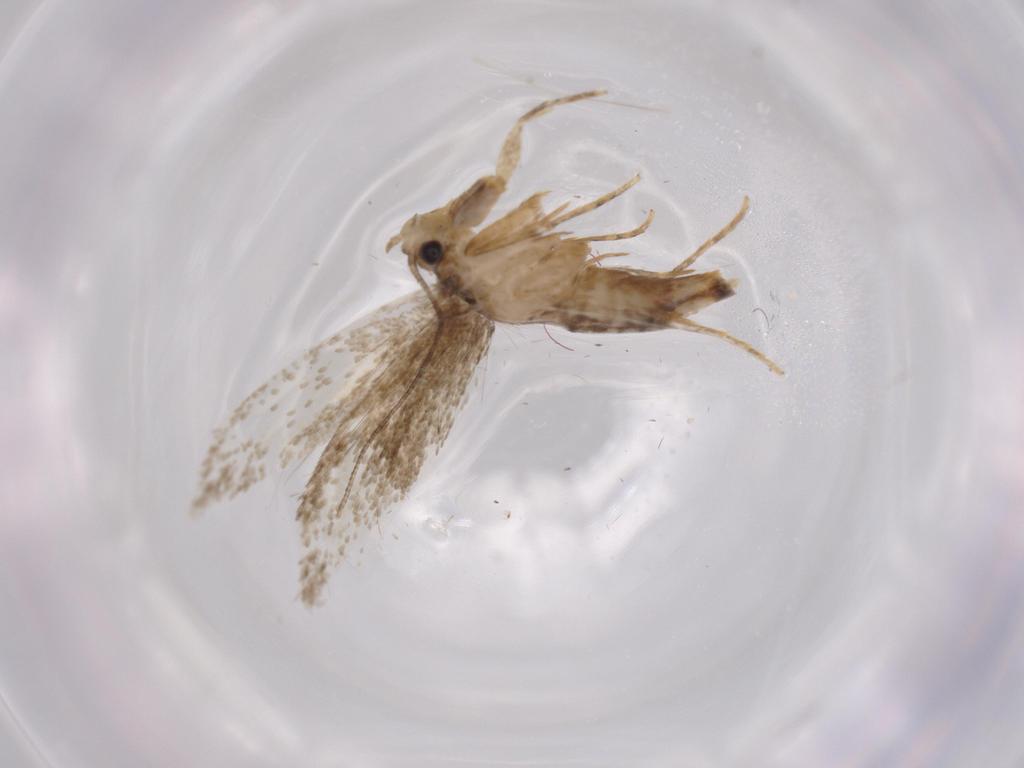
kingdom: Animalia
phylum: Arthropoda
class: Insecta
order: Lepidoptera
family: Tineidae
